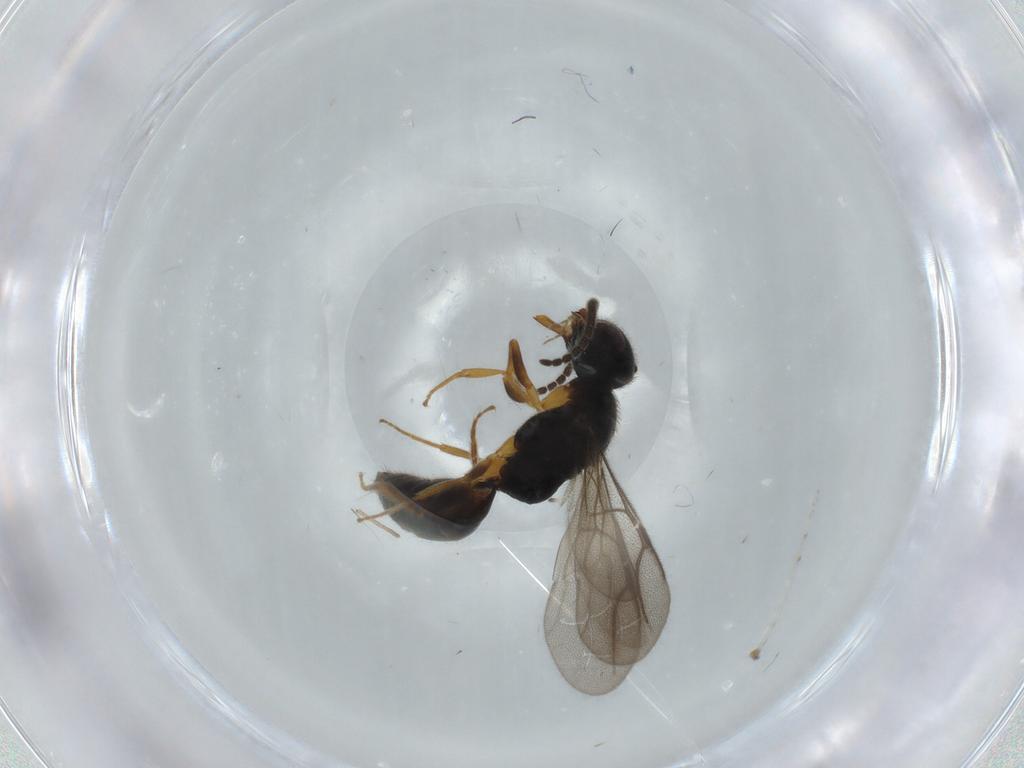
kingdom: Animalia
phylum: Arthropoda
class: Insecta
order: Hymenoptera
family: Bethylidae
